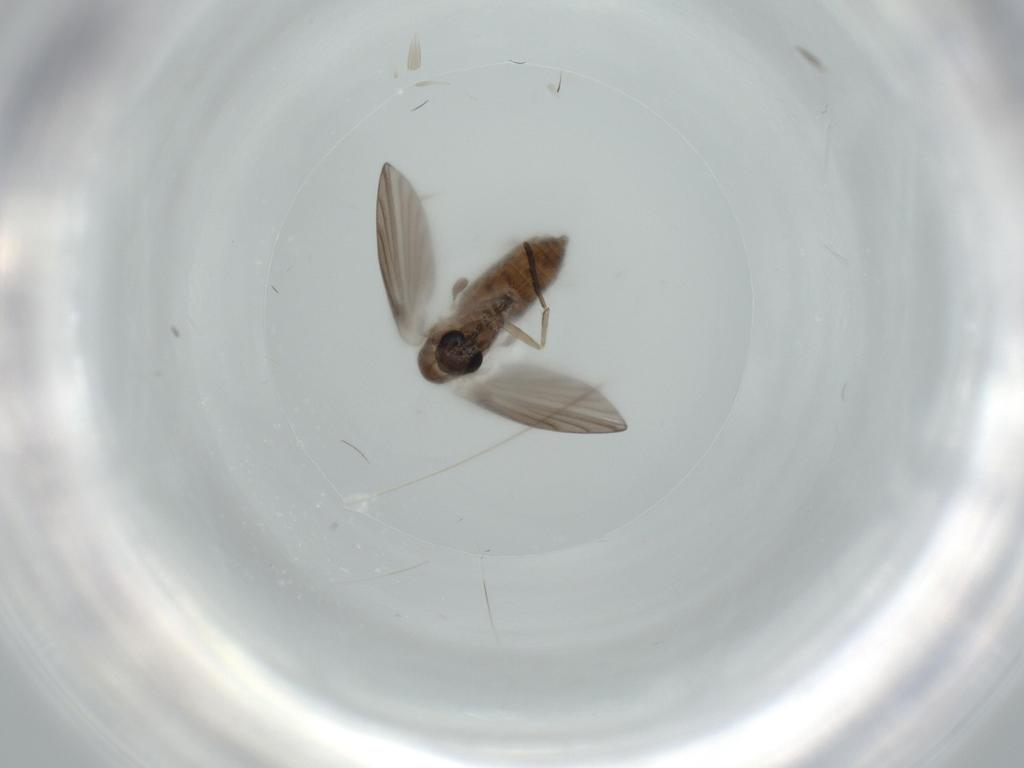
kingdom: Animalia
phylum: Arthropoda
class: Insecta
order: Diptera
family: Psychodidae
